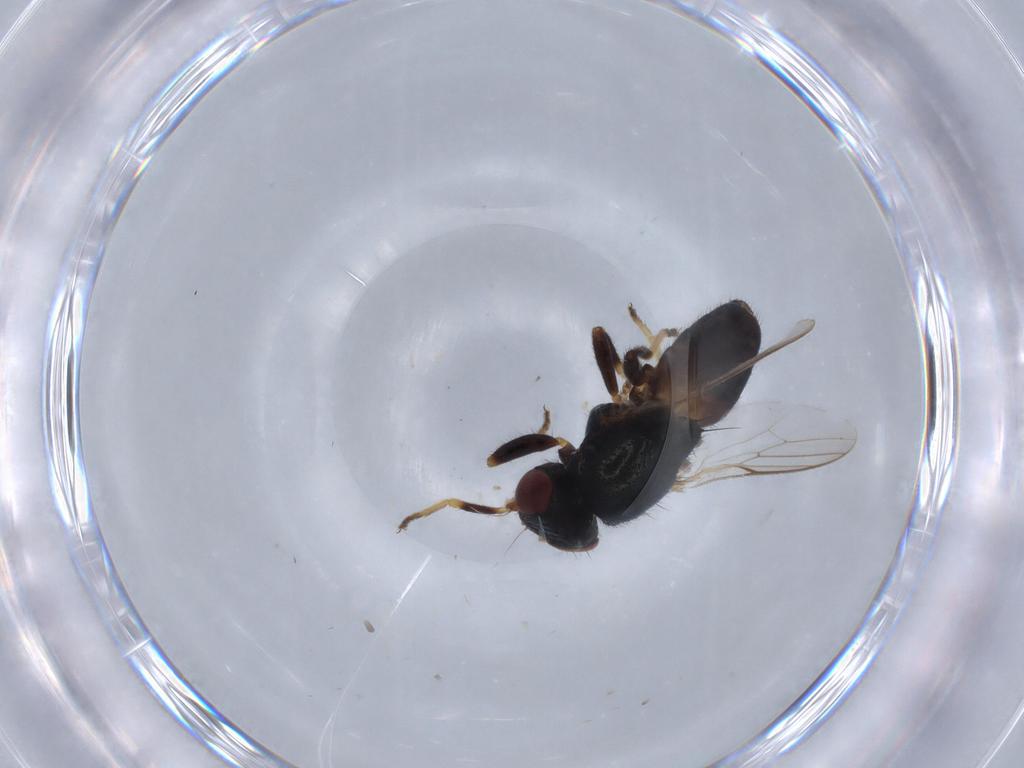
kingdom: Animalia
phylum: Arthropoda
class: Insecta
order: Diptera
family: Chloropidae
